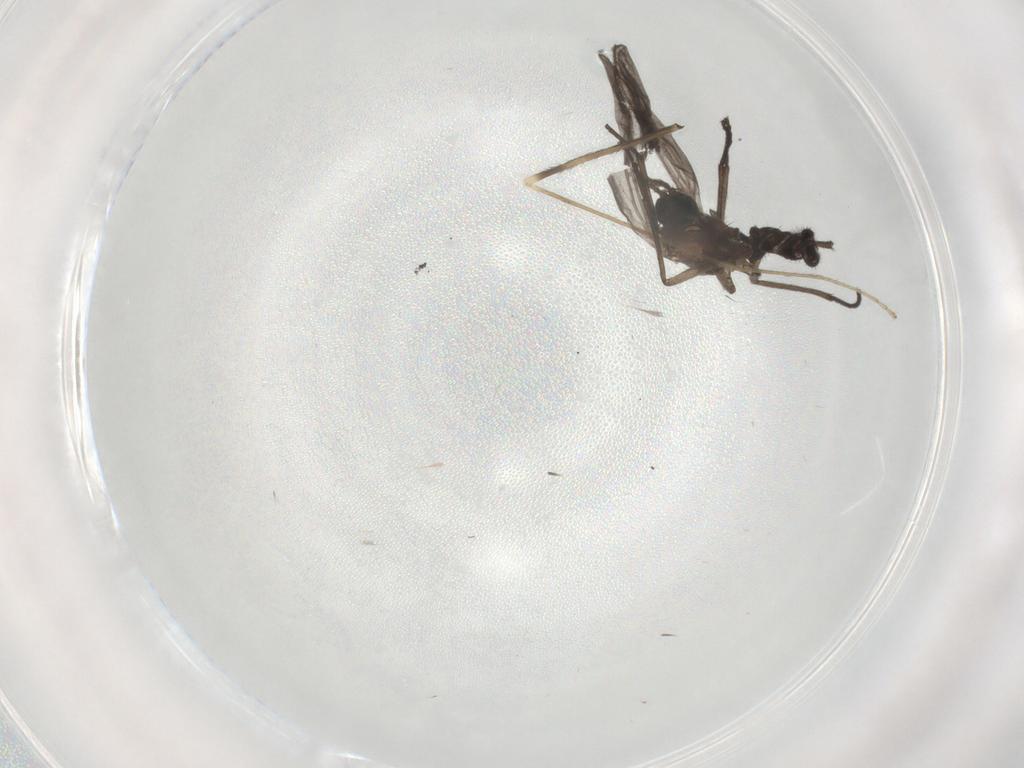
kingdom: Animalia
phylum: Arthropoda
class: Insecta
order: Diptera
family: Sciaridae
